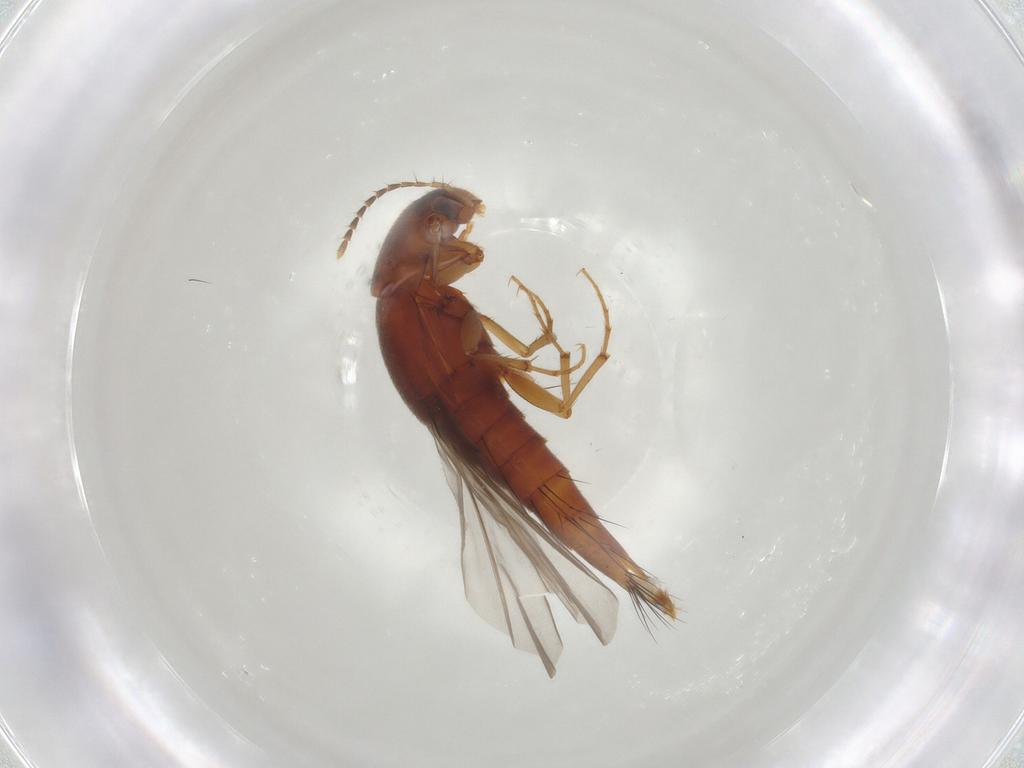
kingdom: Animalia
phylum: Arthropoda
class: Insecta
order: Coleoptera
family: Staphylinidae
